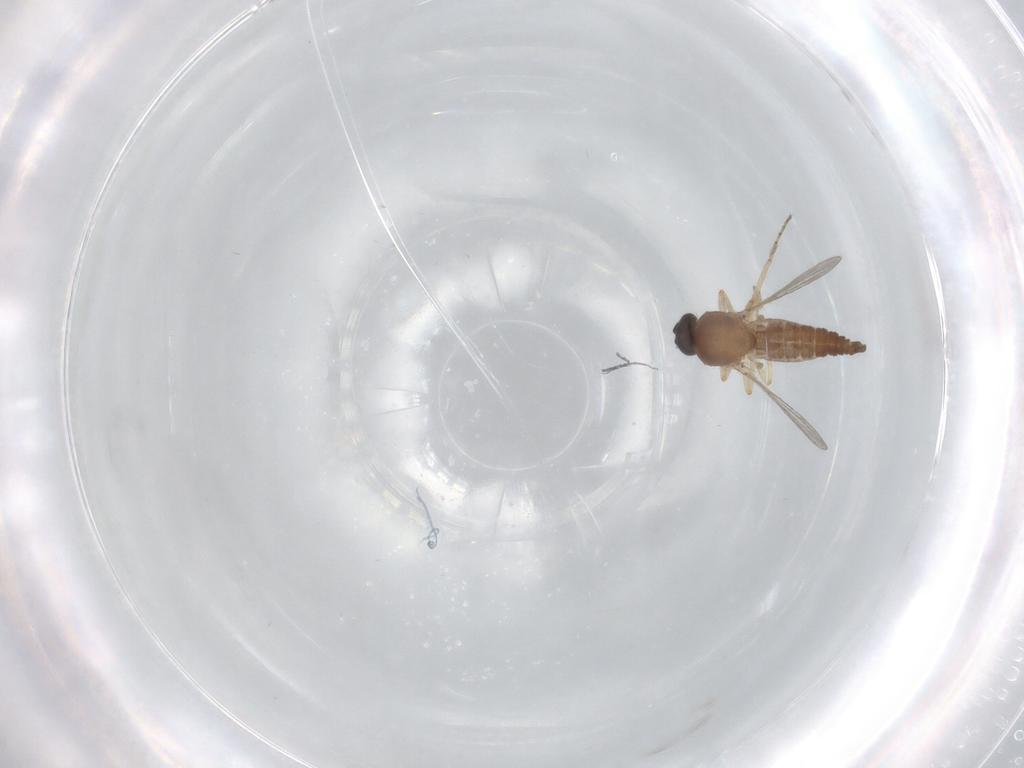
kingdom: Animalia
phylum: Arthropoda
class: Insecta
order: Diptera
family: Ceratopogonidae
